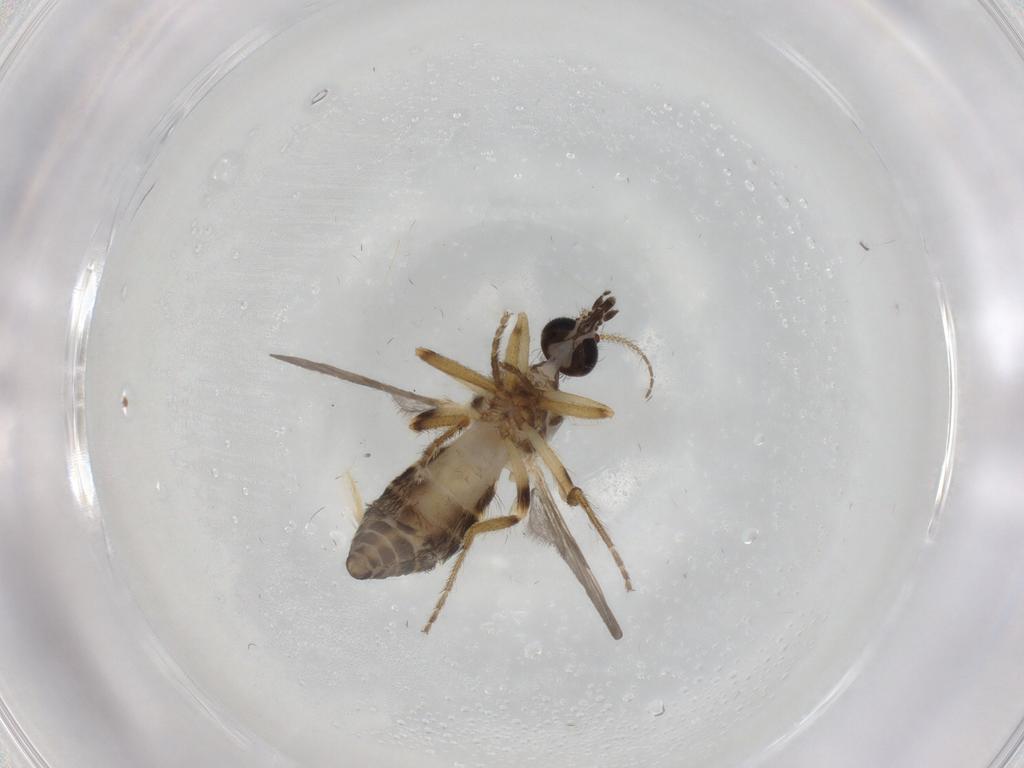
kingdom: Animalia
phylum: Arthropoda
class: Insecta
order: Diptera
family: Ceratopogonidae
